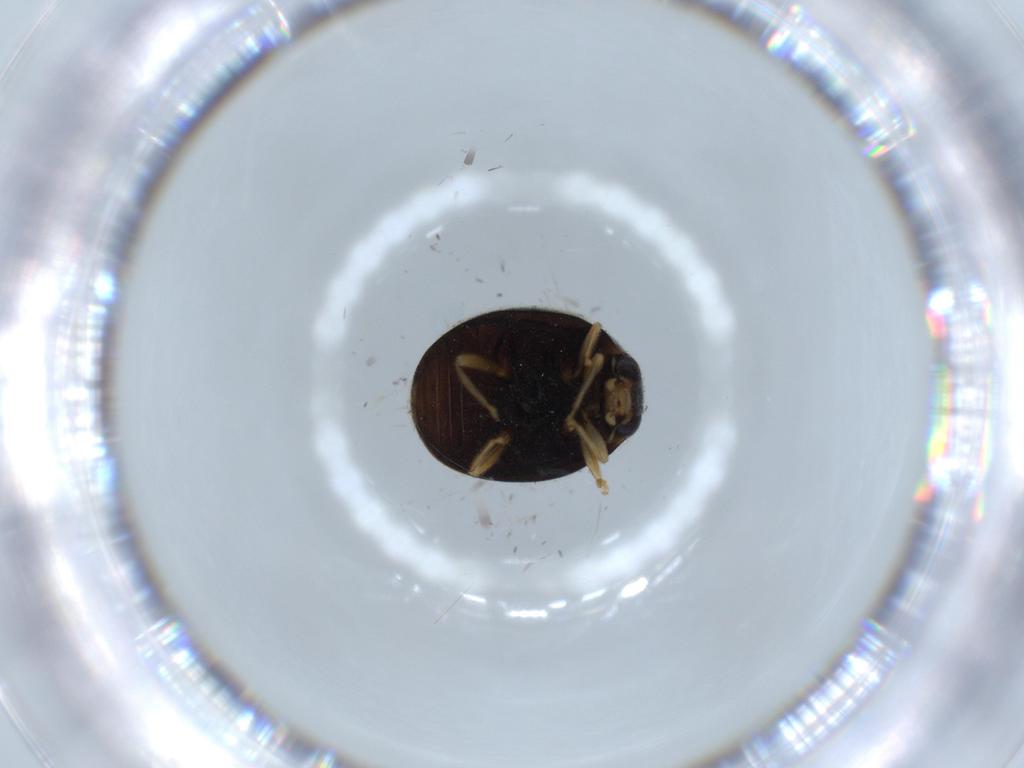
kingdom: Animalia
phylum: Arthropoda
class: Insecta
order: Coleoptera
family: Coccinellidae
